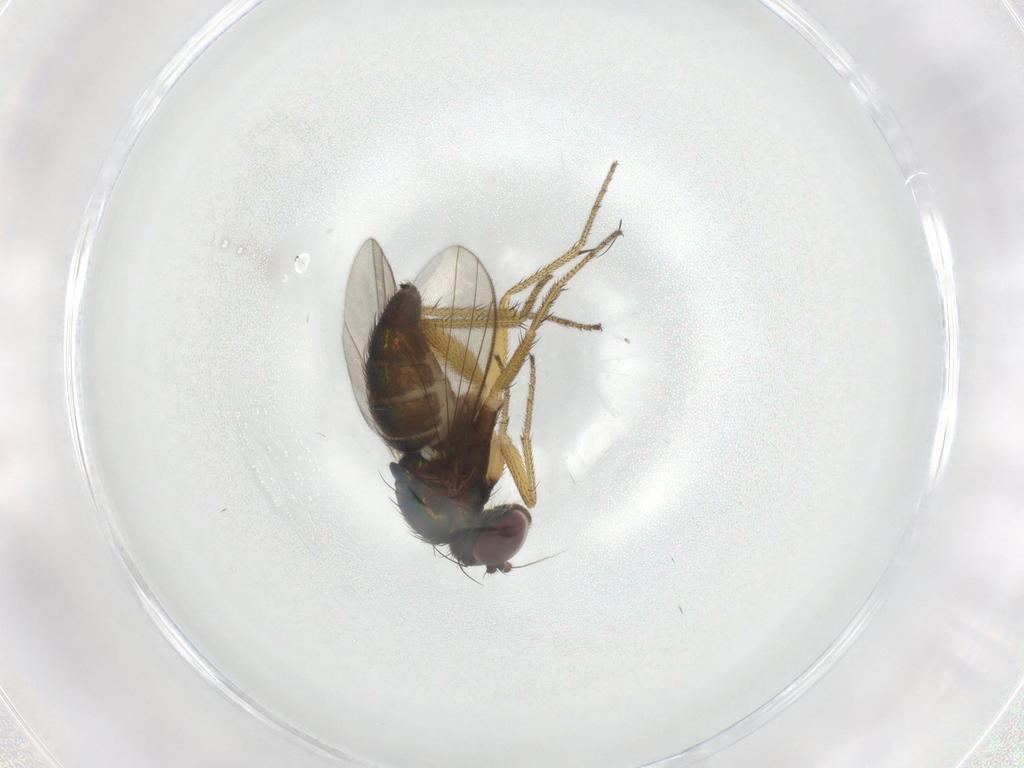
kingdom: Animalia
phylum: Arthropoda
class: Insecta
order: Diptera
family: Dolichopodidae
